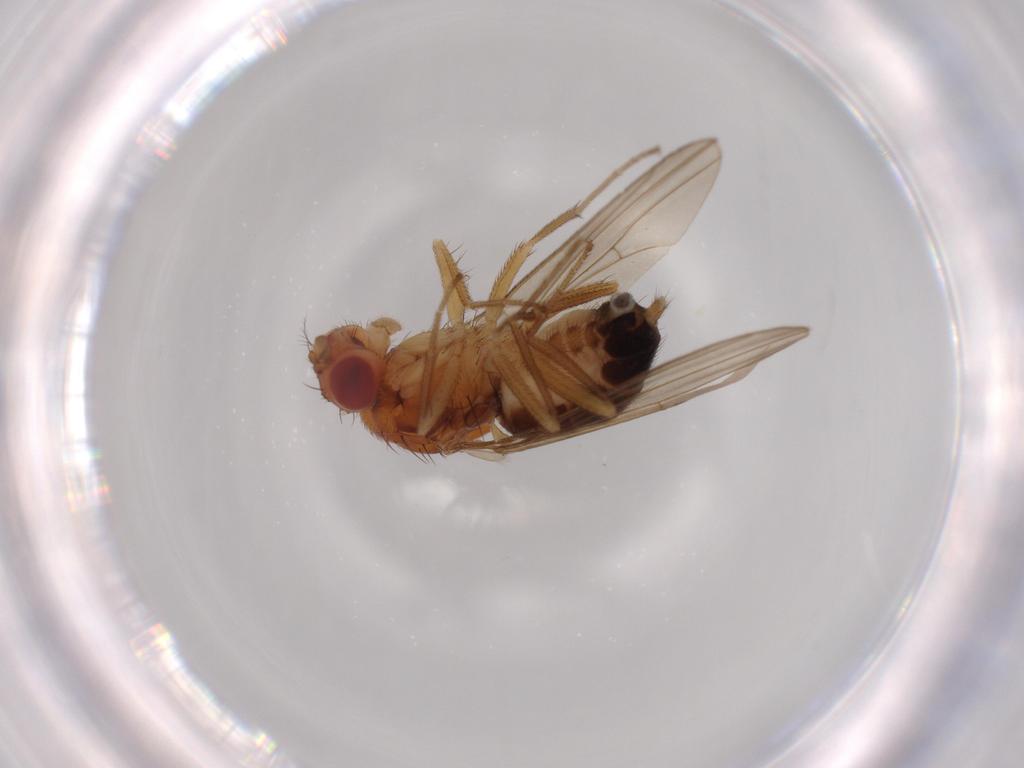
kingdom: Animalia
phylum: Arthropoda
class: Insecta
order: Diptera
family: Drosophilidae
